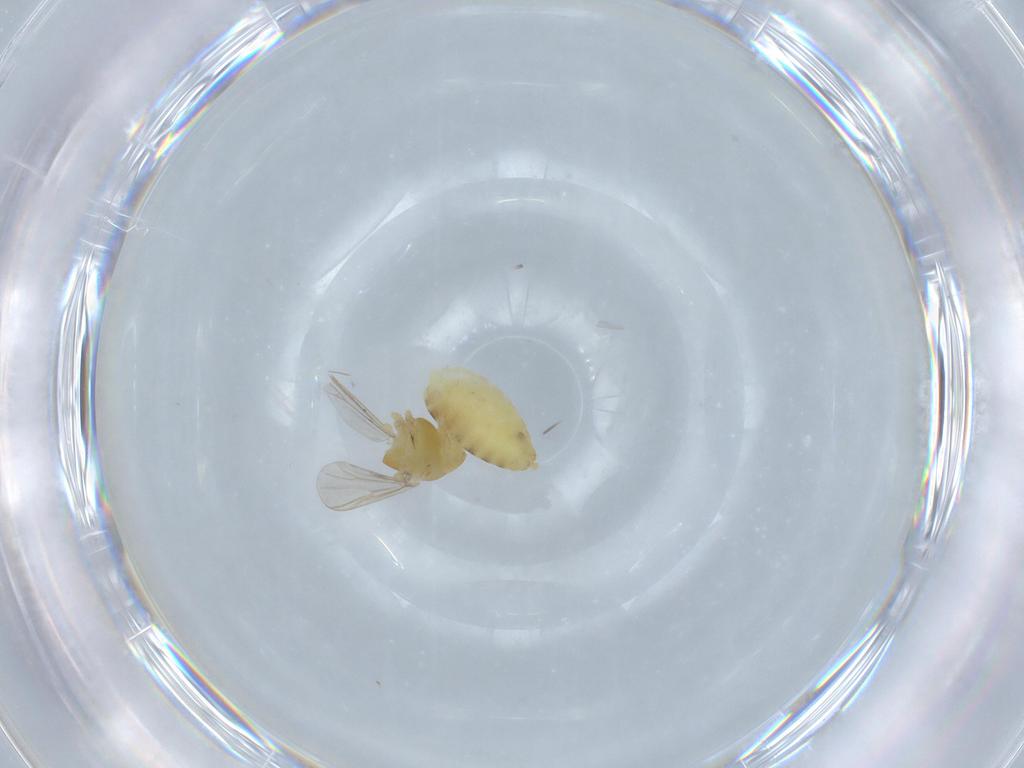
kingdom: Animalia
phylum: Arthropoda
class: Insecta
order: Diptera
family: Chironomidae
